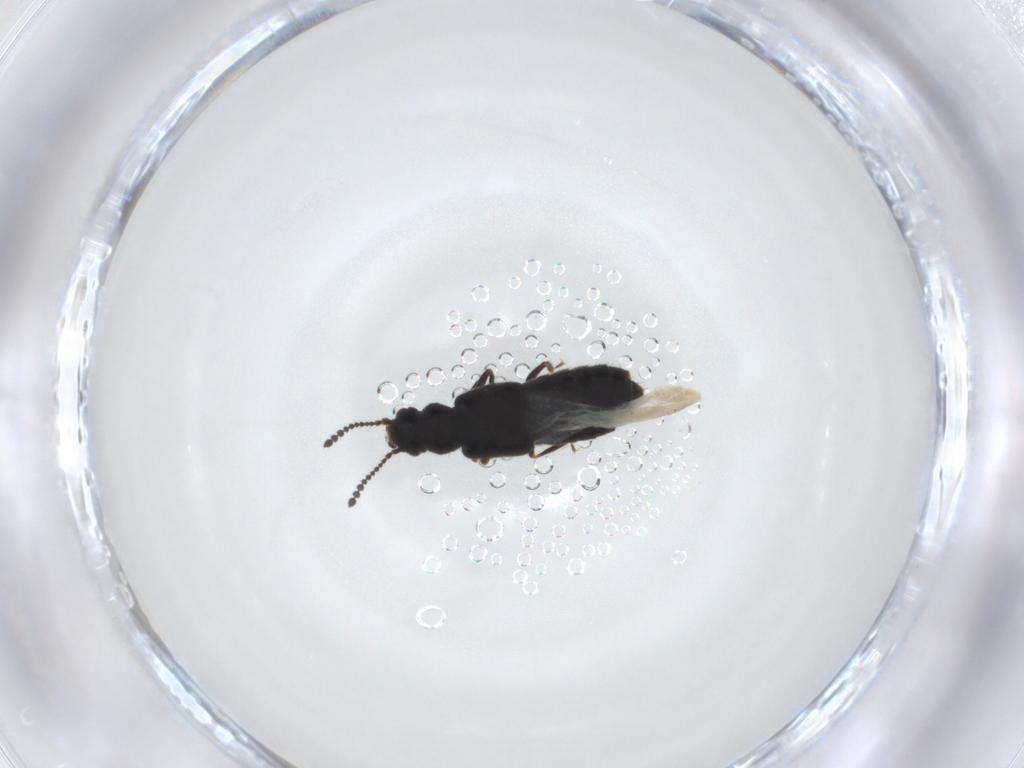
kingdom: Animalia
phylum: Arthropoda
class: Insecta
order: Coleoptera
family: Staphylinidae
